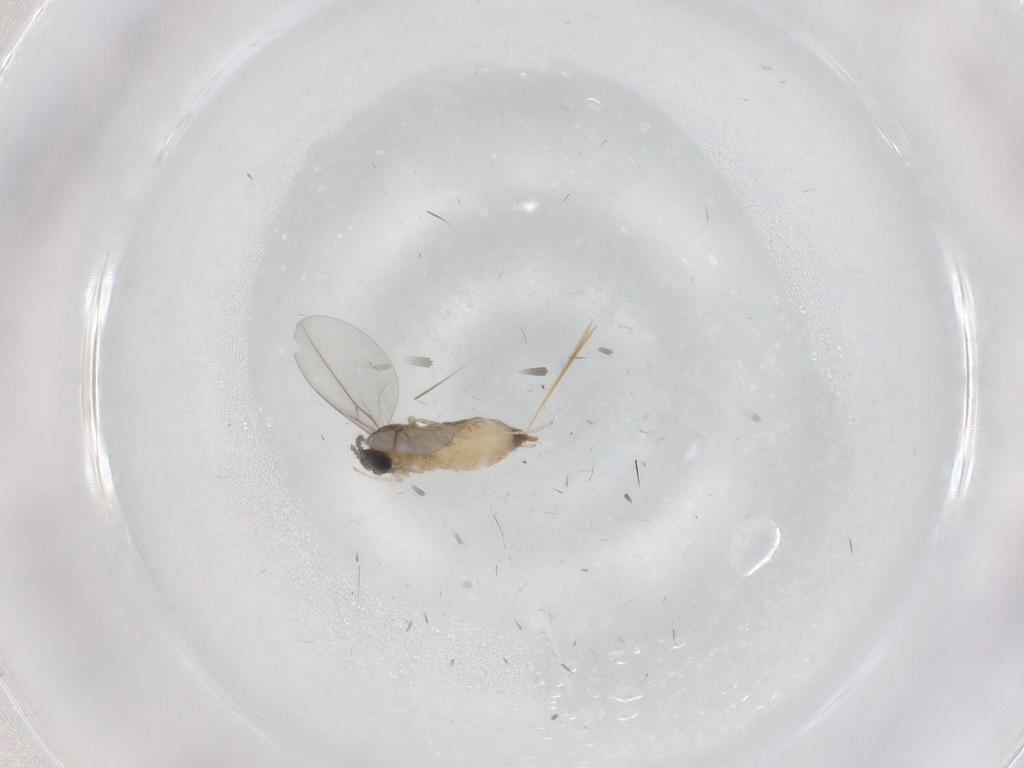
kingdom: Animalia
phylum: Arthropoda
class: Insecta
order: Diptera
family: Cecidomyiidae
